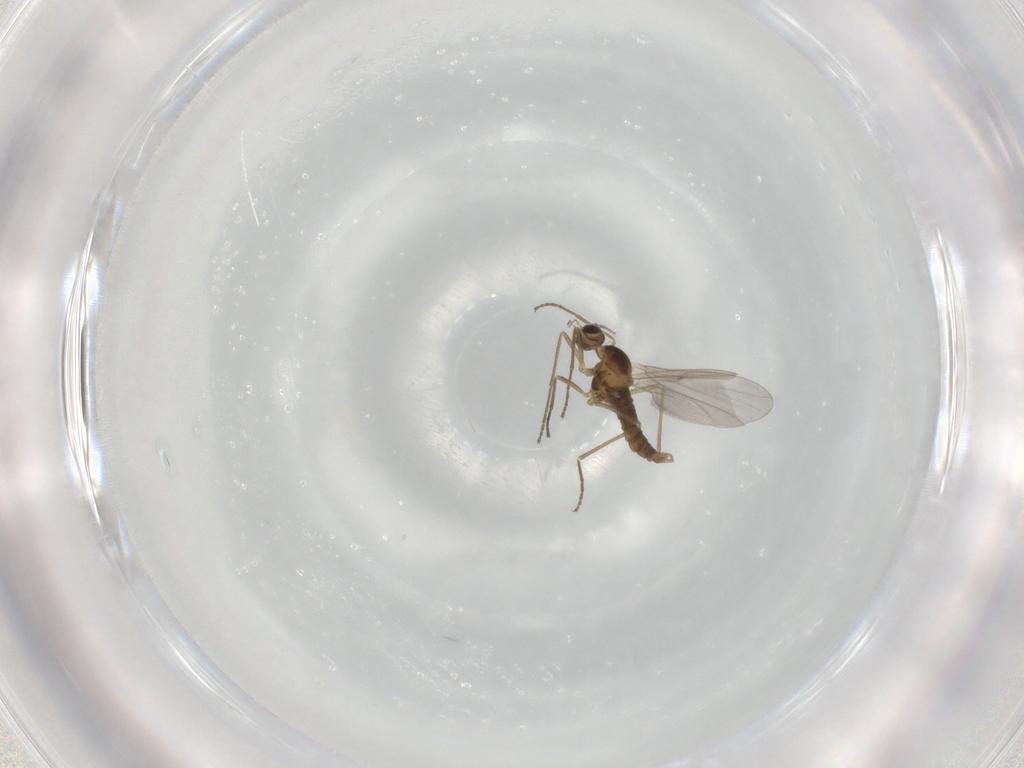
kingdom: Animalia
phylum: Arthropoda
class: Insecta
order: Diptera
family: Cecidomyiidae
